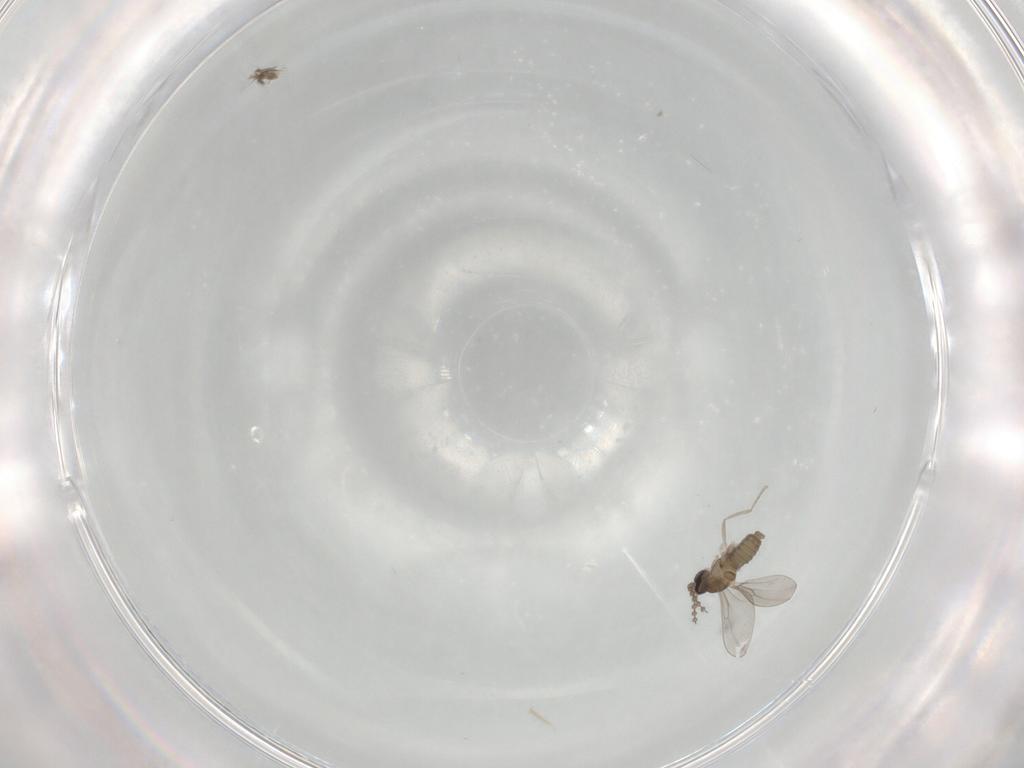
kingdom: Animalia
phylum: Arthropoda
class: Insecta
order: Diptera
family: Cecidomyiidae
